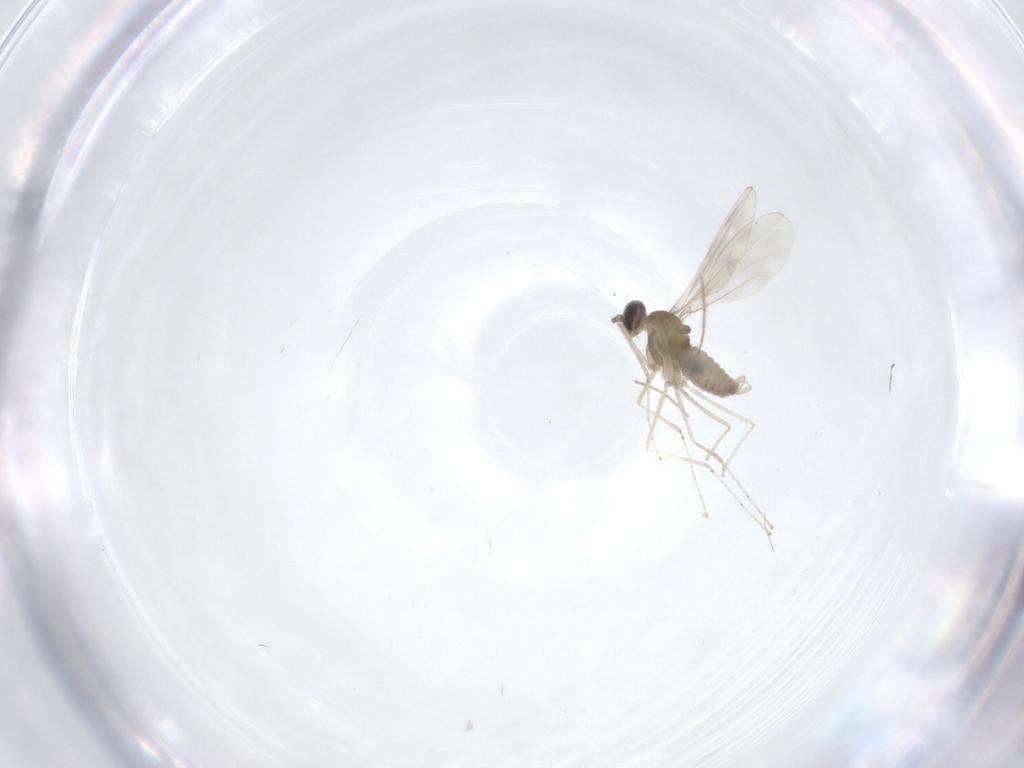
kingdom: Animalia
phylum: Arthropoda
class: Insecta
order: Diptera
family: Cecidomyiidae
